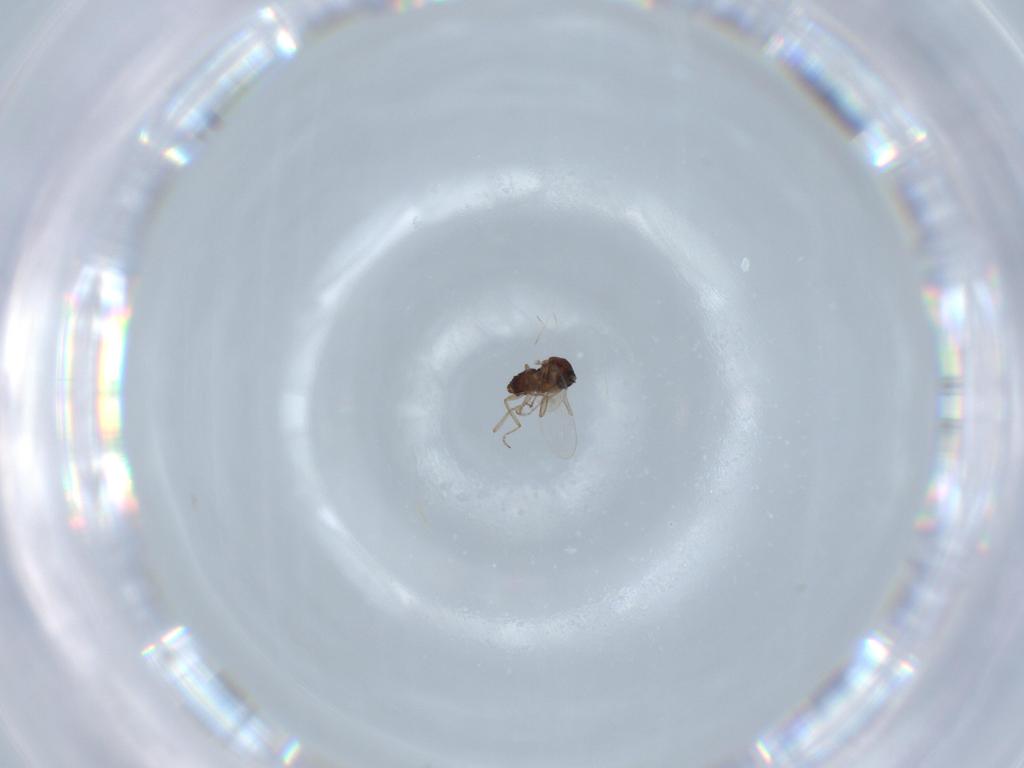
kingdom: Animalia
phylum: Arthropoda
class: Insecta
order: Diptera
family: Ceratopogonidae
